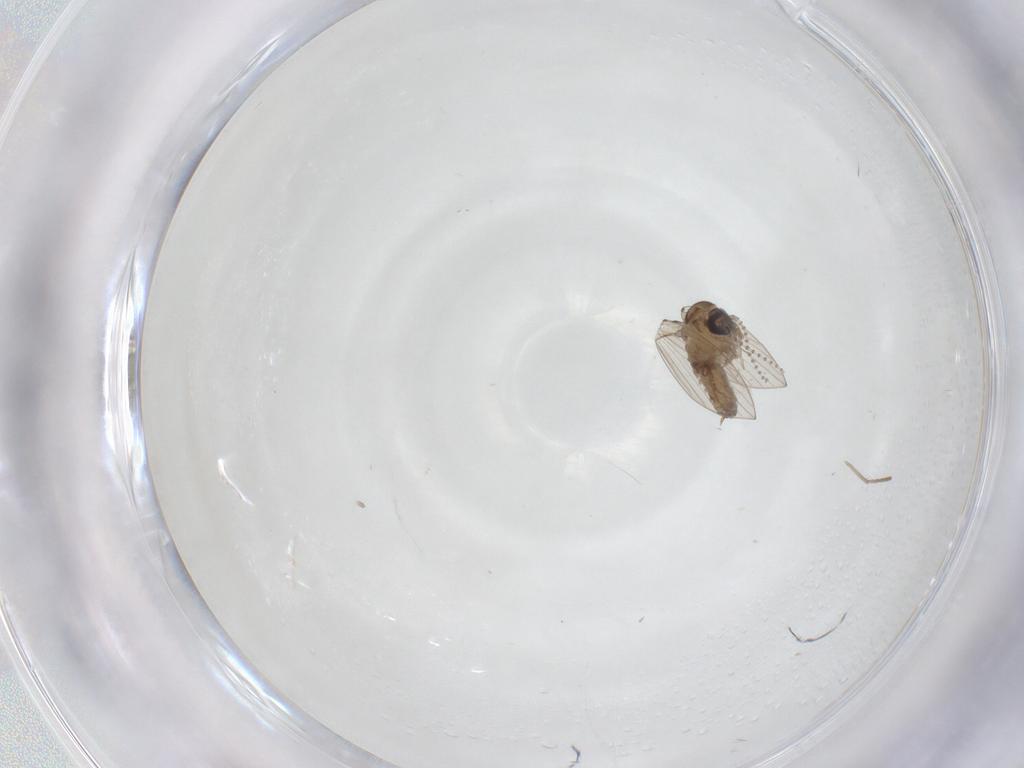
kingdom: Animalia
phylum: Arthropoda
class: Insecta
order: Diptera
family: Psychodidae
